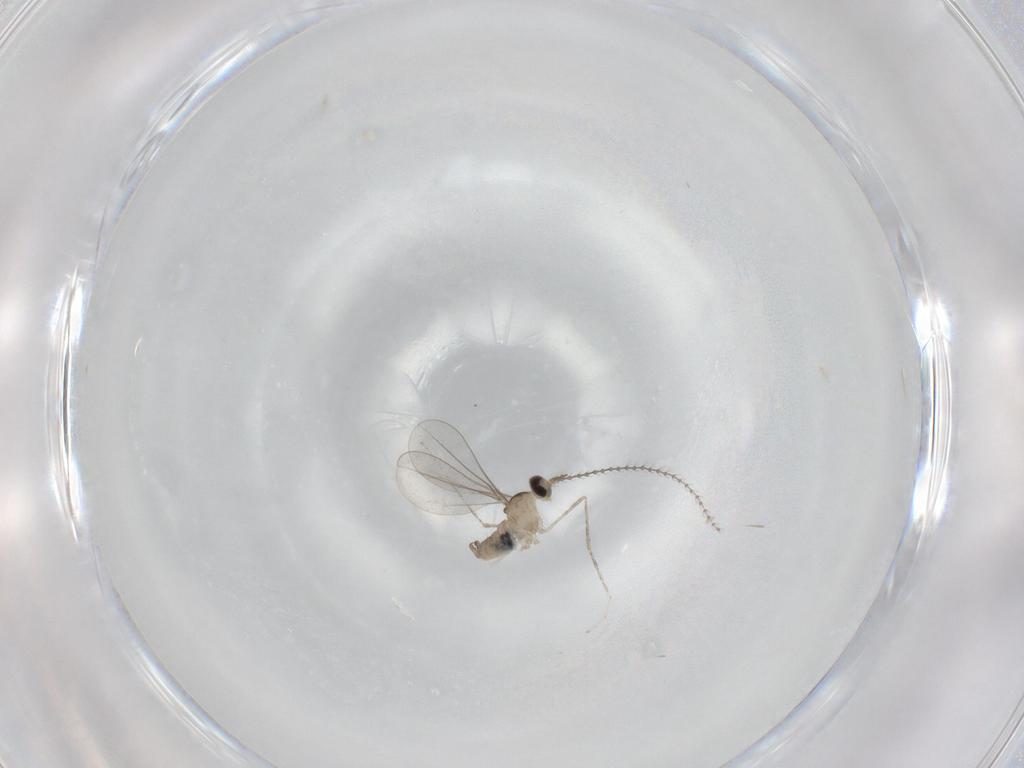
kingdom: Animalia
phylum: Arthropoda
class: Insecta
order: Diptera
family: Cecidomyiidae
